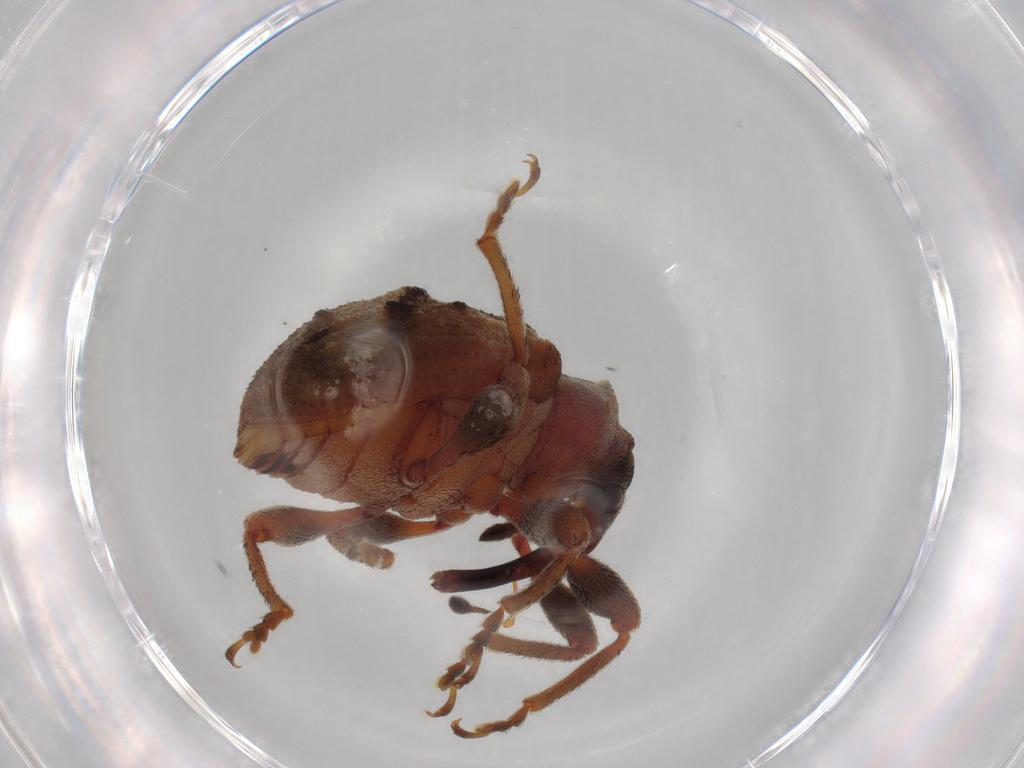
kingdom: Animalia
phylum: Arthropoda
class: Insecta
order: Coleoptera
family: Curculionidae
